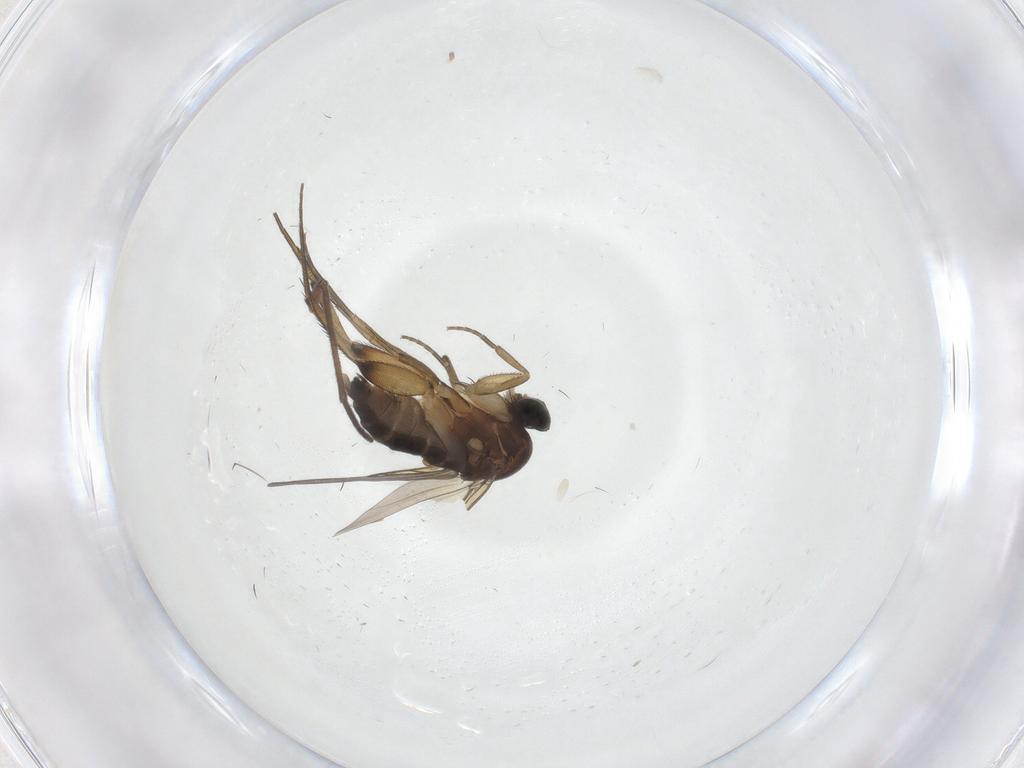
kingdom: Animalia
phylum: Arthropoda
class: Insecta
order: Diptera
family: Phoridae
